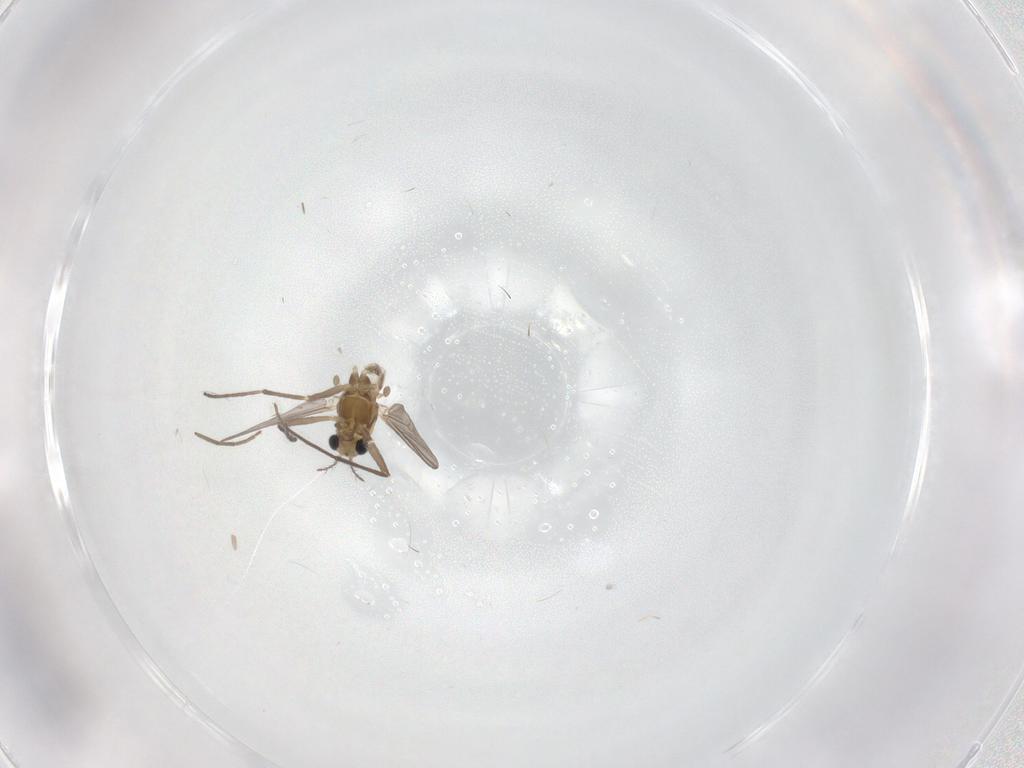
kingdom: Animalia
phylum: Arthropoda
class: Insecta
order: Diptera
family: Chironomidae
